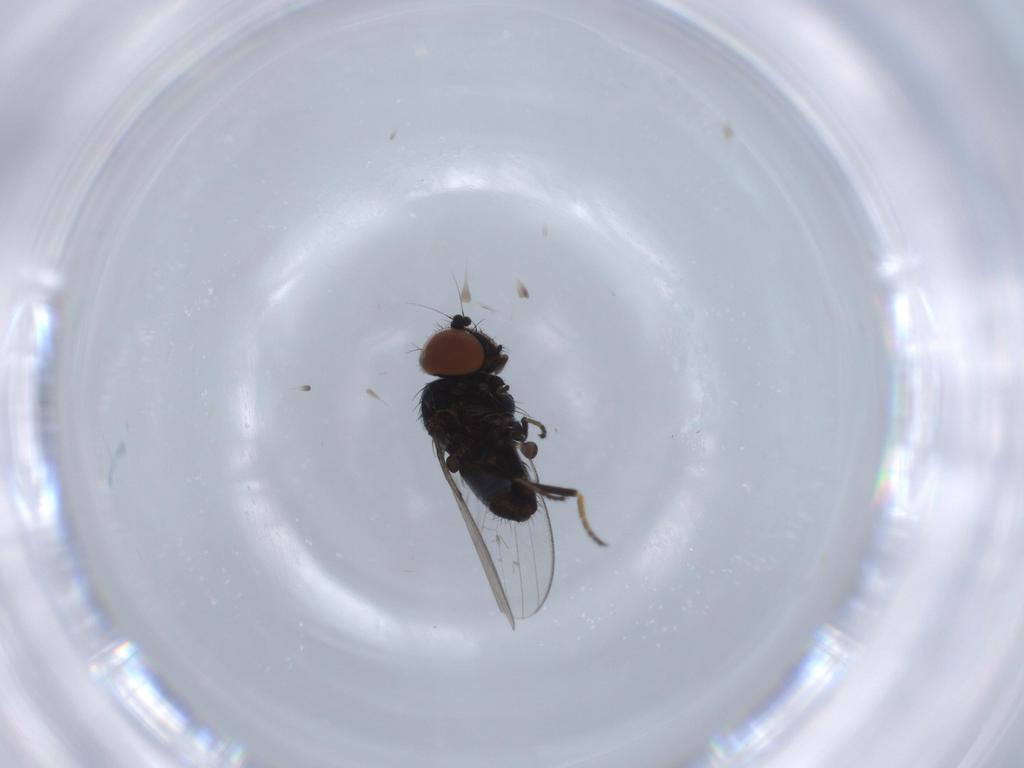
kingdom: Animalia
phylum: Arthropoda
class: Insecta
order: Diptera
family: Milichiidae
